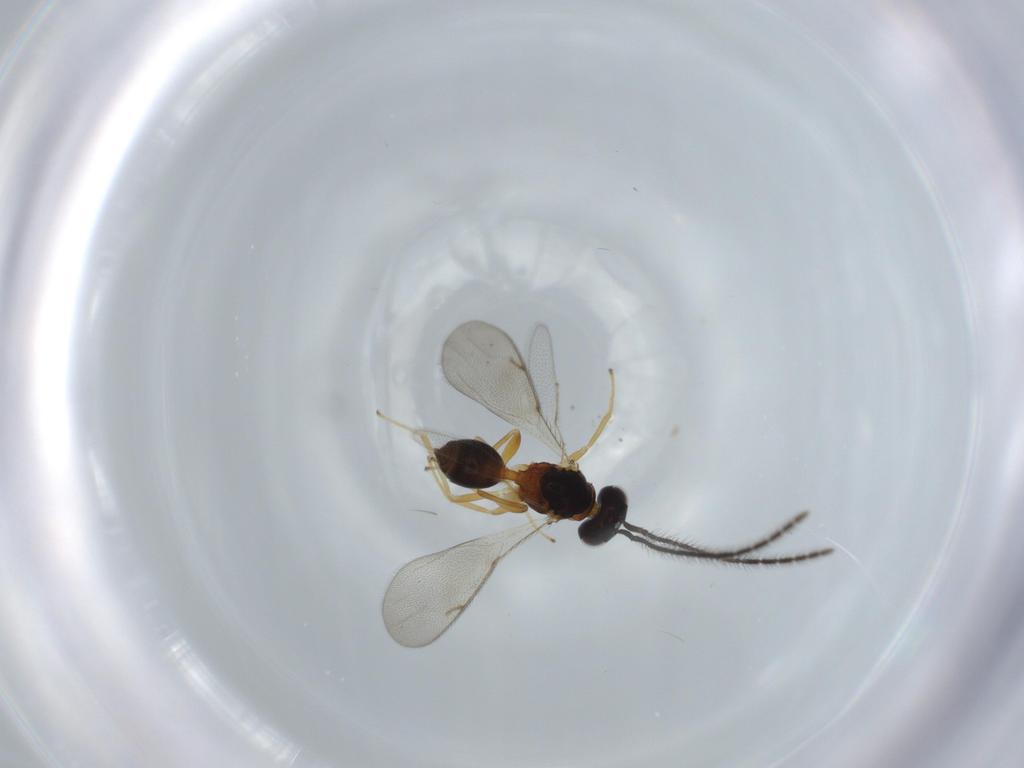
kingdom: Animalia
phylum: Arthropoda
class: Insecta
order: Hymenoptera
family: Diparidae
